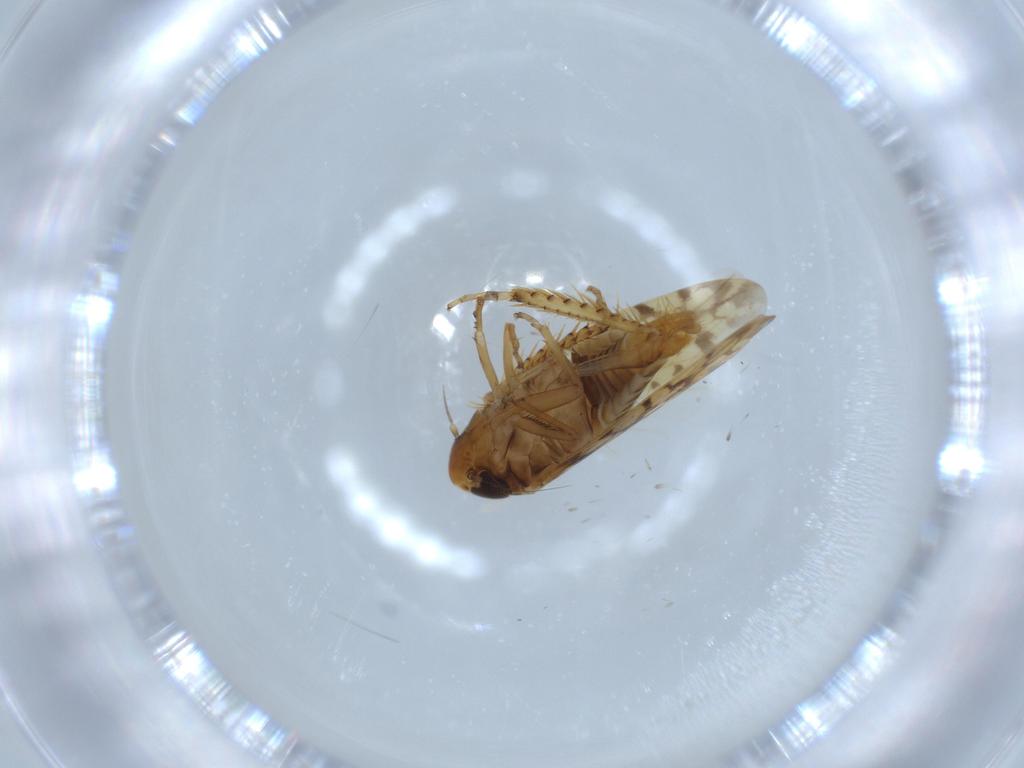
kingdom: Animalia
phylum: Arthropoda
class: Insecta
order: Hemiptera
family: Cicadellidae
